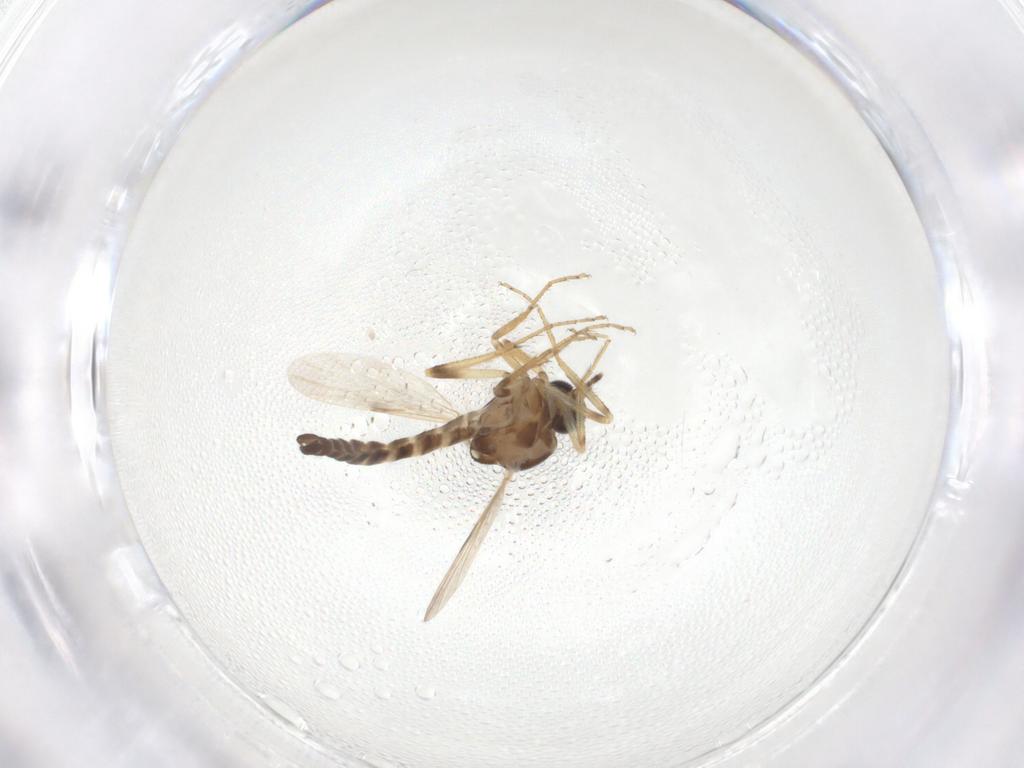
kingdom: Animalia
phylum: Arthropoda
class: Insecta
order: Diptera
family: Ceratopogonidae
